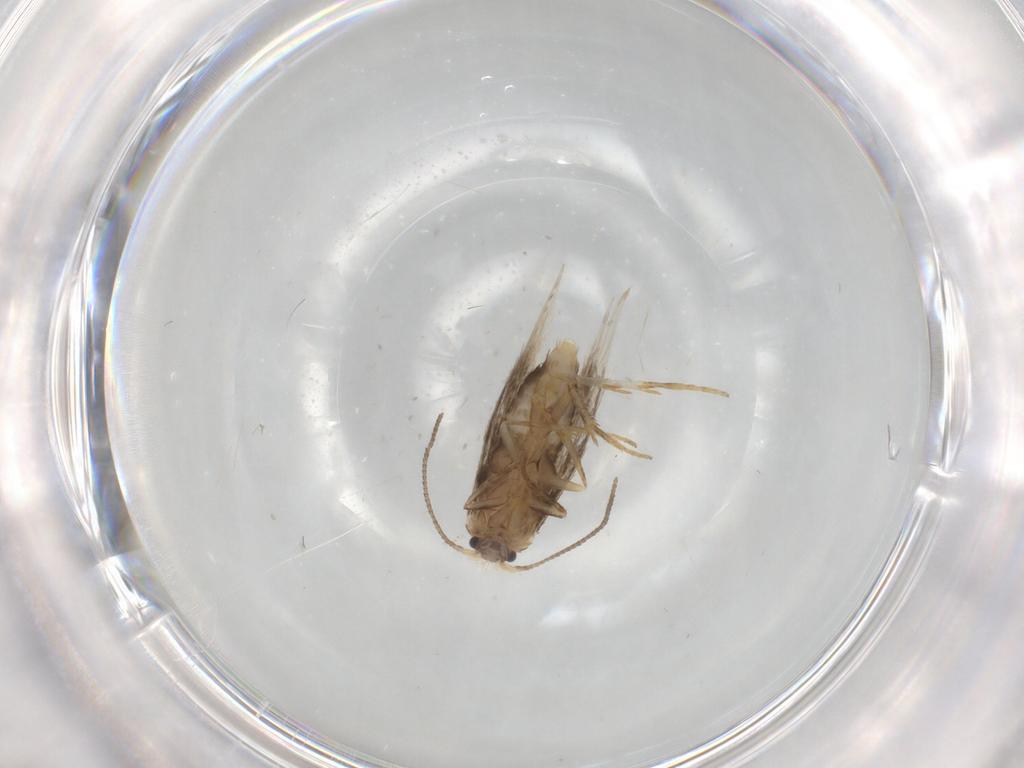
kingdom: Animalia
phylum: Arthropoda
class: Insecta
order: Lepidoptera
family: Nepticulidae
